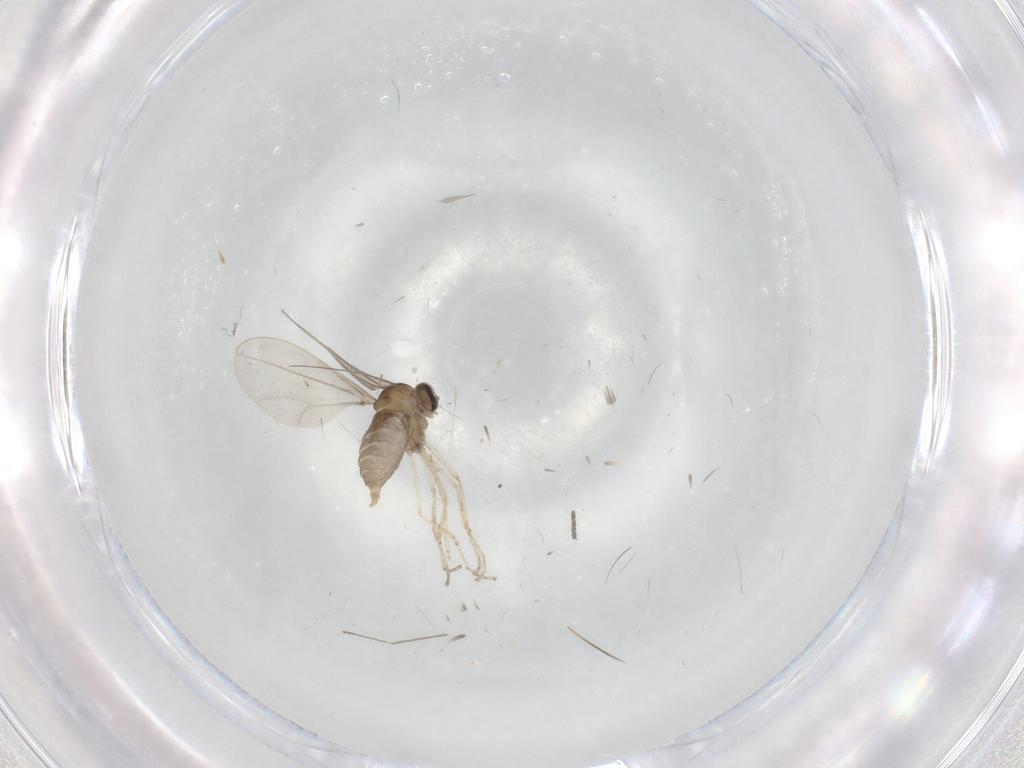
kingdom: Animalia
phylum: Arthropoda
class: Insecta
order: Diptera
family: Cecidomyiidae
